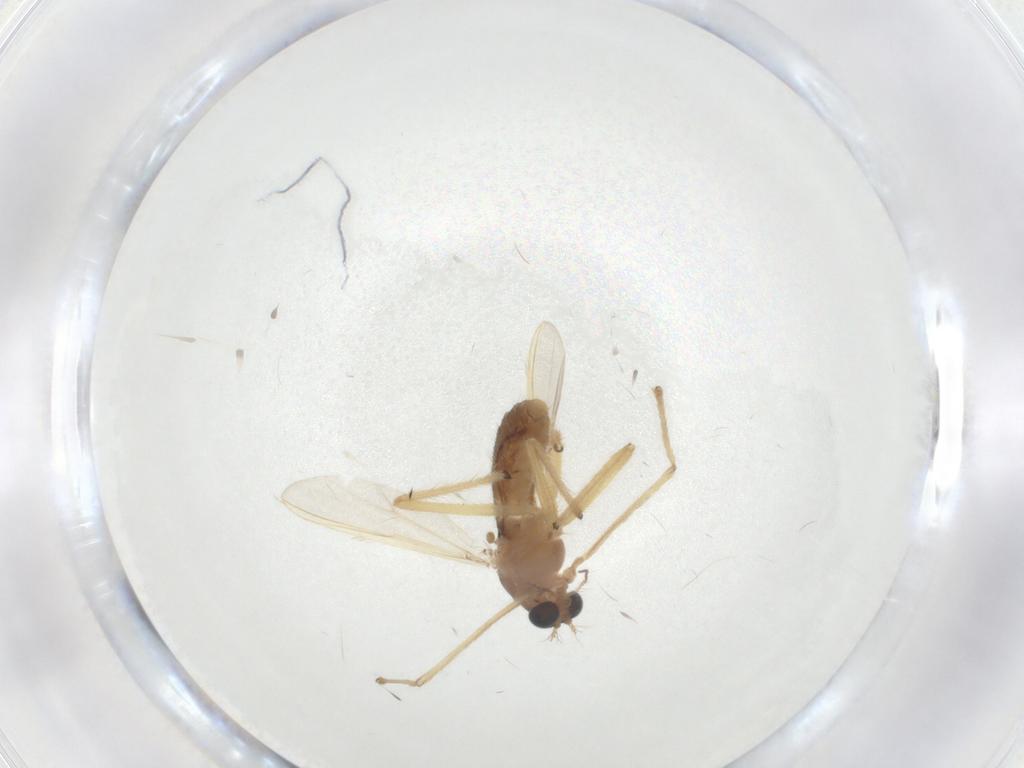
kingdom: Animalia
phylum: Arthropoda
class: Insecta
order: Diptera
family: Chironomidae
